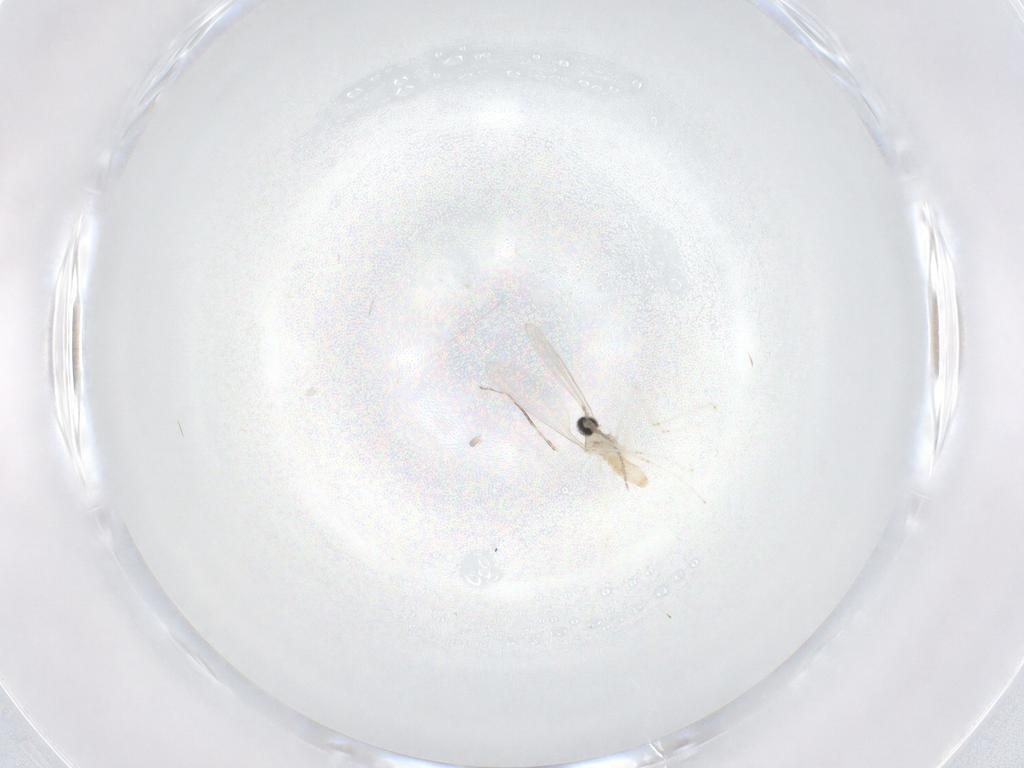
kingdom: Animalia
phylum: Arthropoda
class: Insecta
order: Diptera
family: Cecidomyiidae
